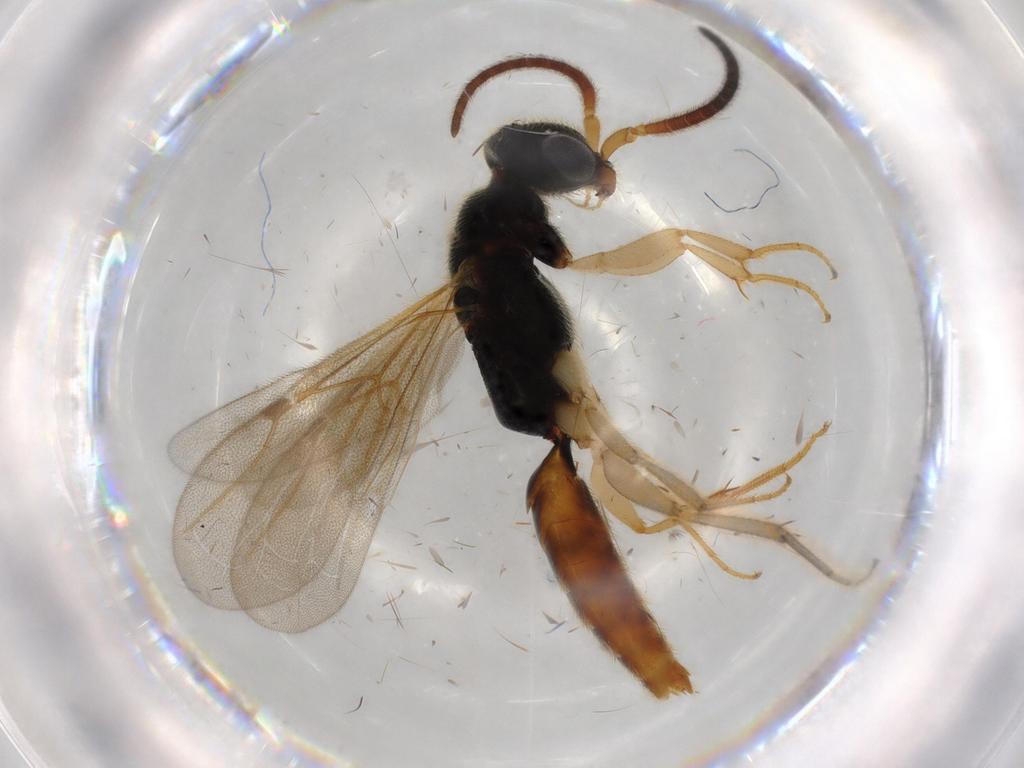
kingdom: Animalia
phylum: Arthropoda
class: Insecta
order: Hymenoptera
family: Bethylidae
